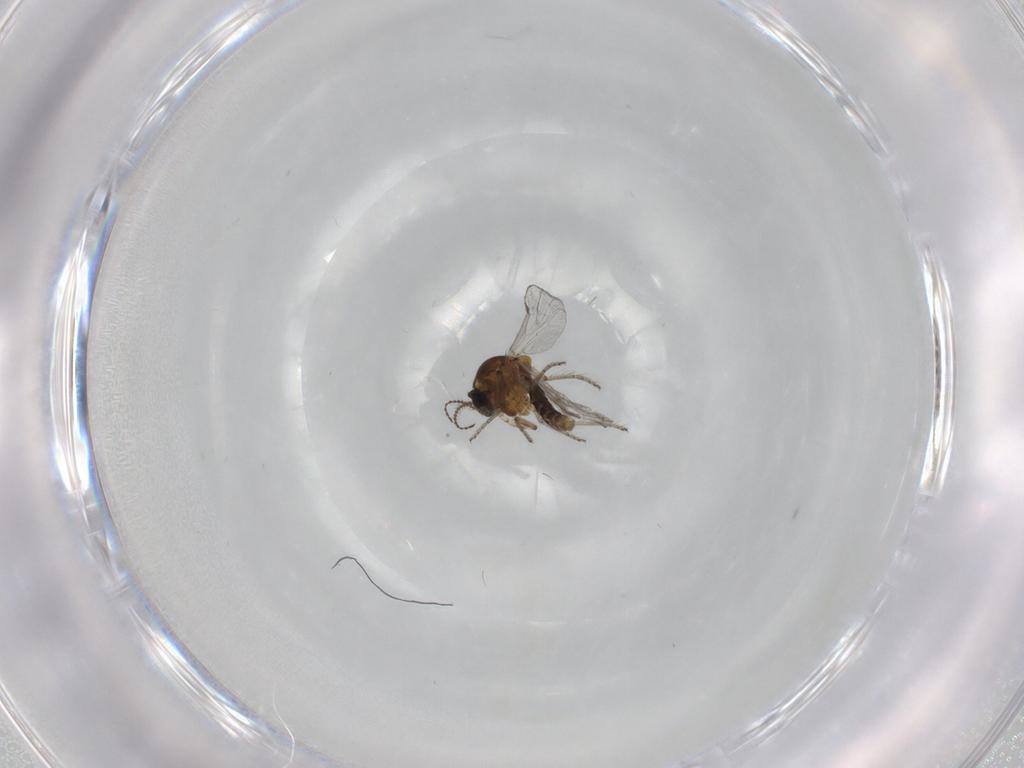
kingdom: Animalia
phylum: Arthropoda
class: Insecta
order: Diptera
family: Ceratopogonidae
